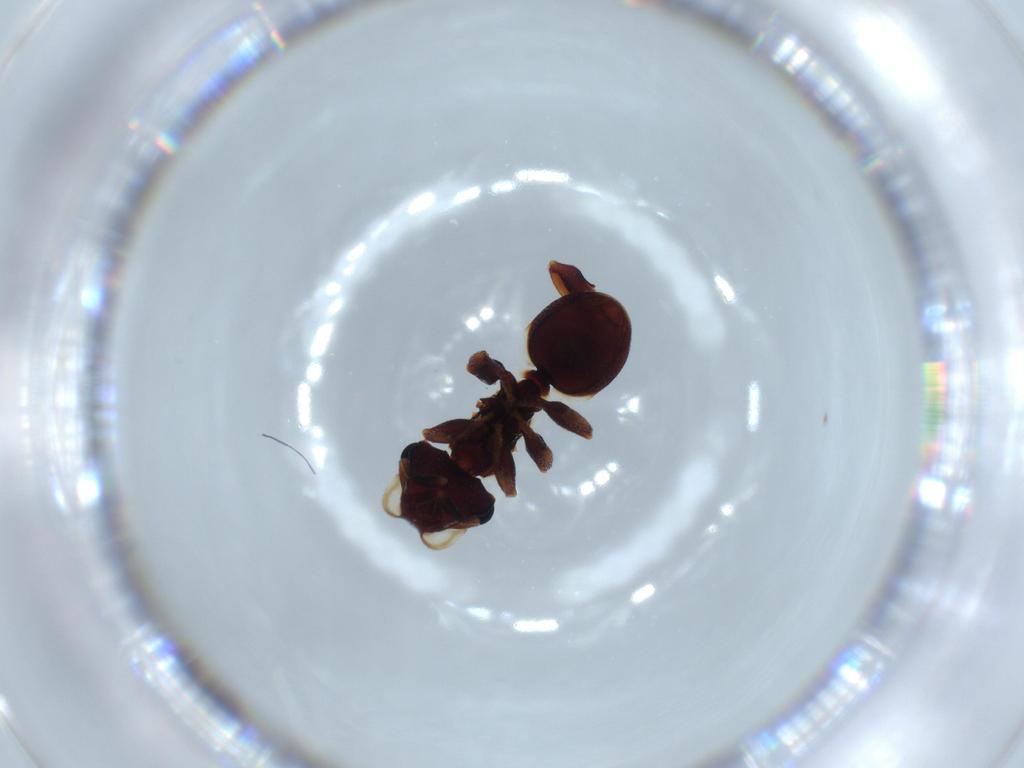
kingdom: Animalia
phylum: Arthropoda
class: Insecta
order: Hymenoptera
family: Formicidae
